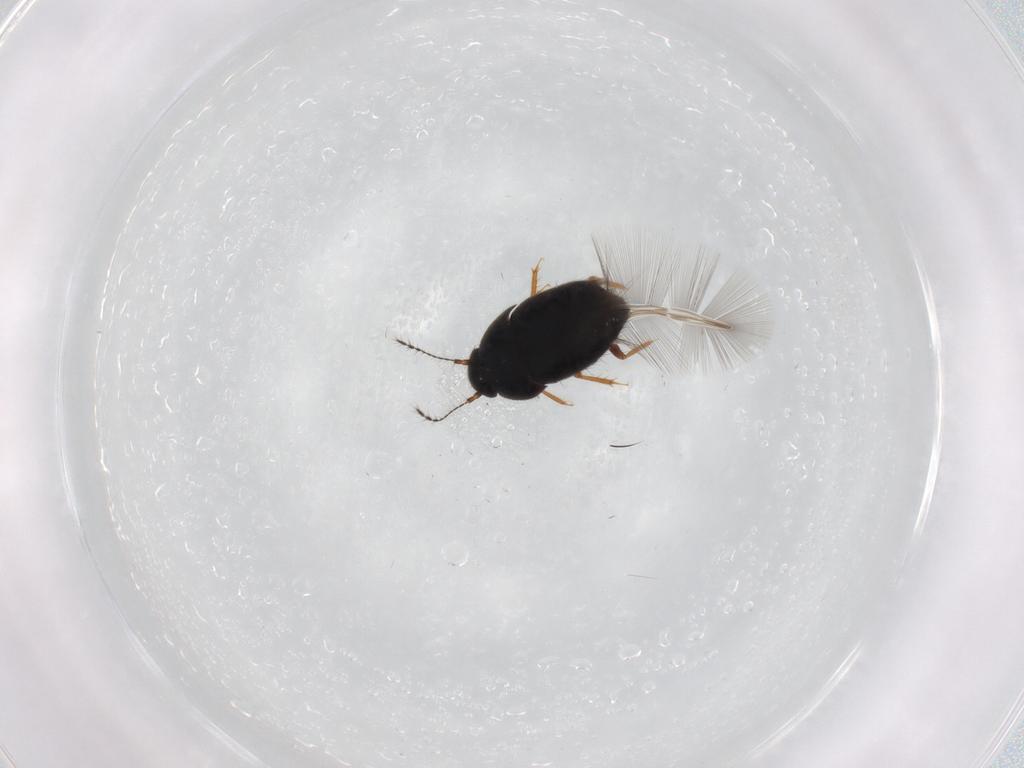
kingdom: Animalia
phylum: Arthropoda
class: Insecta
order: Coleoptera
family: Ptiliidae
